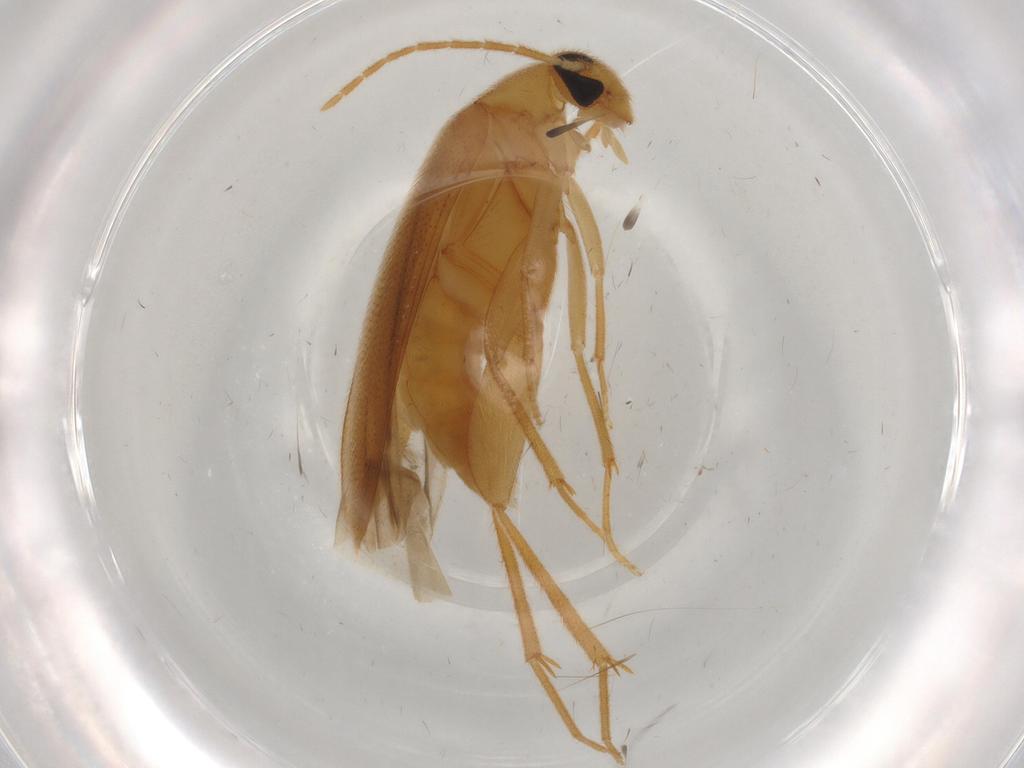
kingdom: Animalia
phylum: Arthropoda
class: Insecta
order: Coleoptera
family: Scraptiidae
